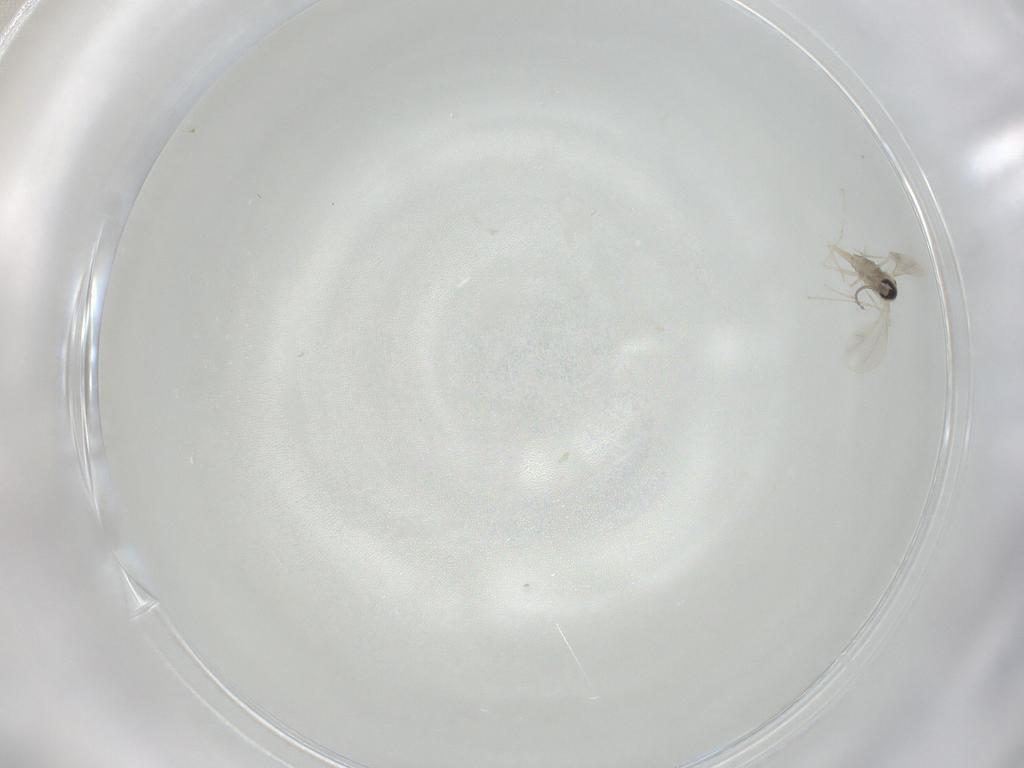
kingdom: Animalia
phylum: Arthropoda
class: Insecta
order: Diptera
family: Cecidomyiidae
